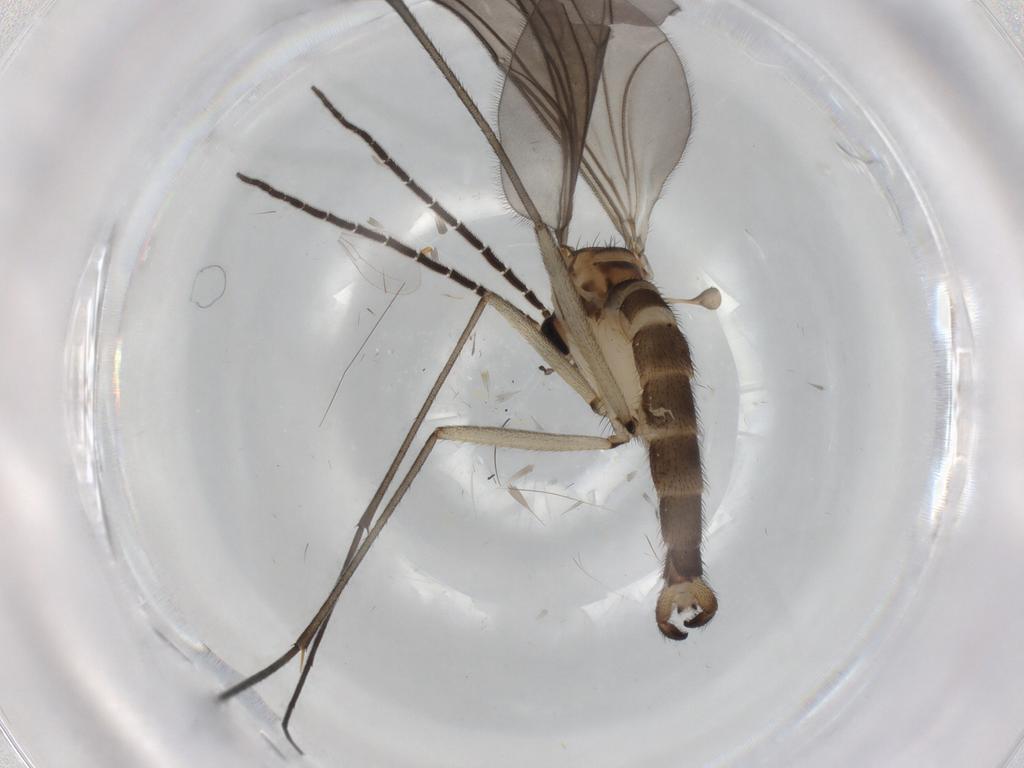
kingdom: Animalia
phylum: Arthropoda
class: Insecta
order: Diptera
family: Sciaridae
